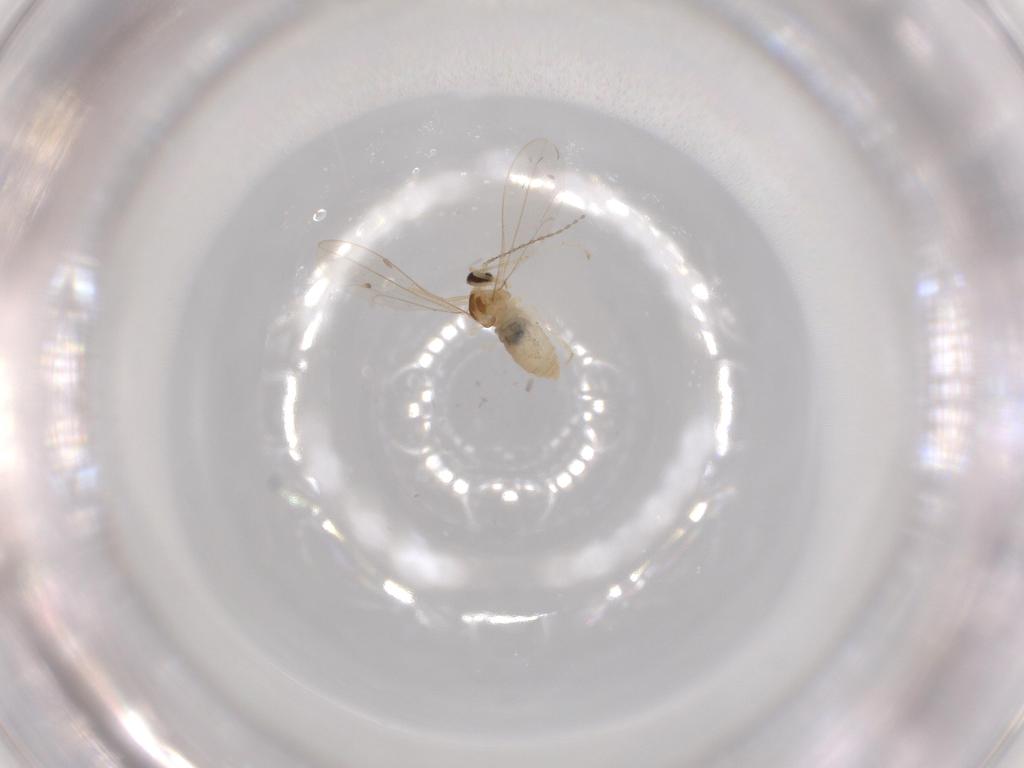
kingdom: Animalia
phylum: Arthropoda
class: Insecta
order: Diptera
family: Cecidomyiidae
